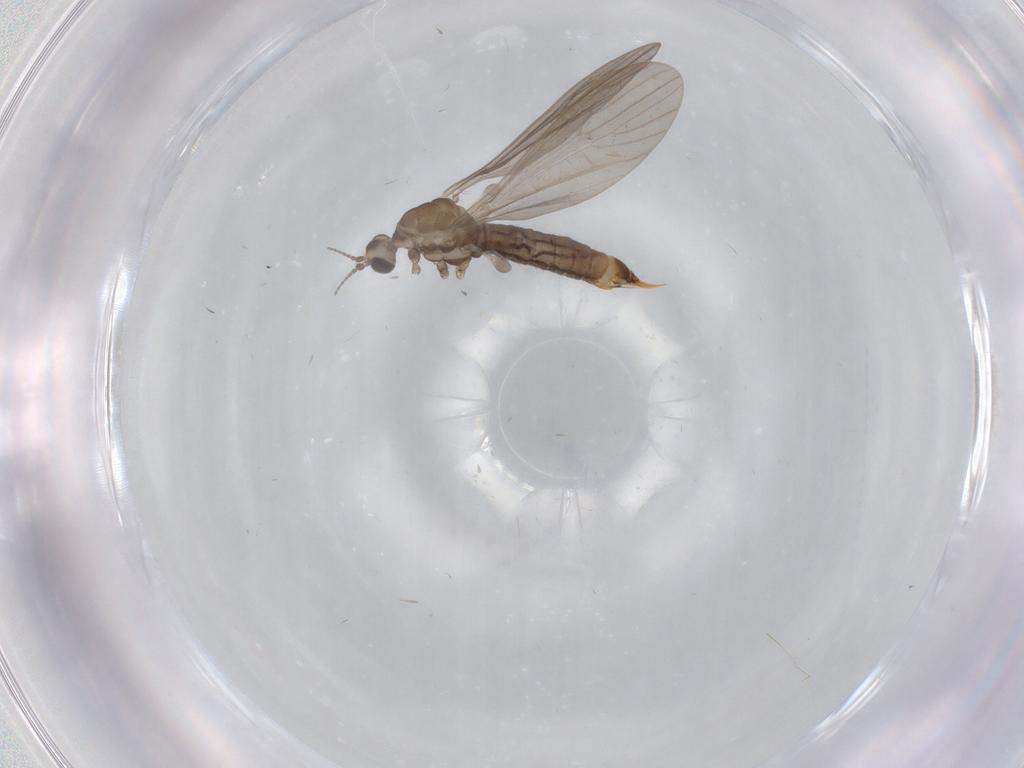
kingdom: Animalia
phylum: Arthropoda
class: Insecta
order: Diptera
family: Limoniidae
